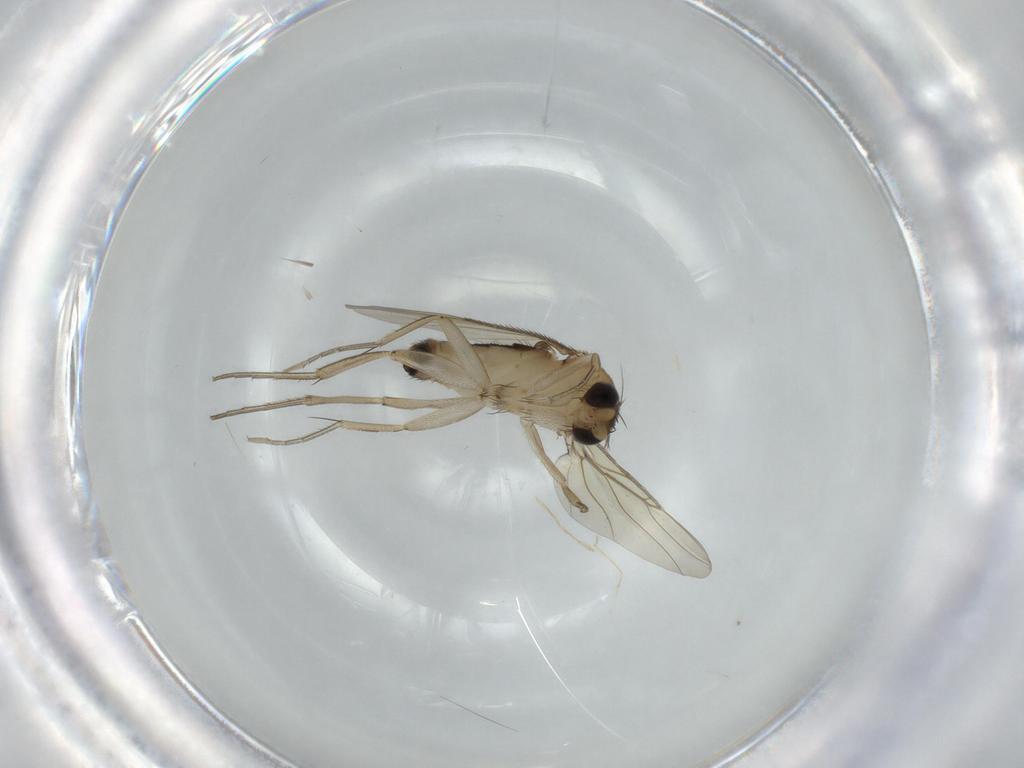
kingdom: Animalia
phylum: Arthropoda
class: Insecta
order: Diptera
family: Phoridae
